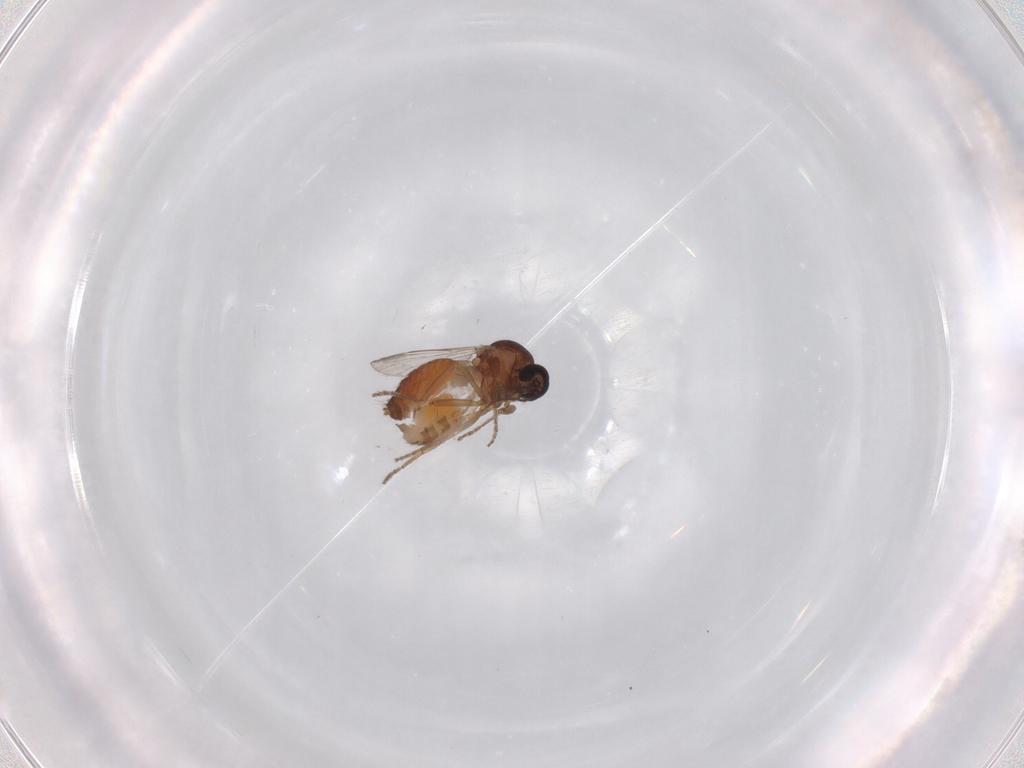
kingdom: Animalia
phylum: Arthropoda
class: Insecta
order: Diptera
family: Ceratopogonidae
